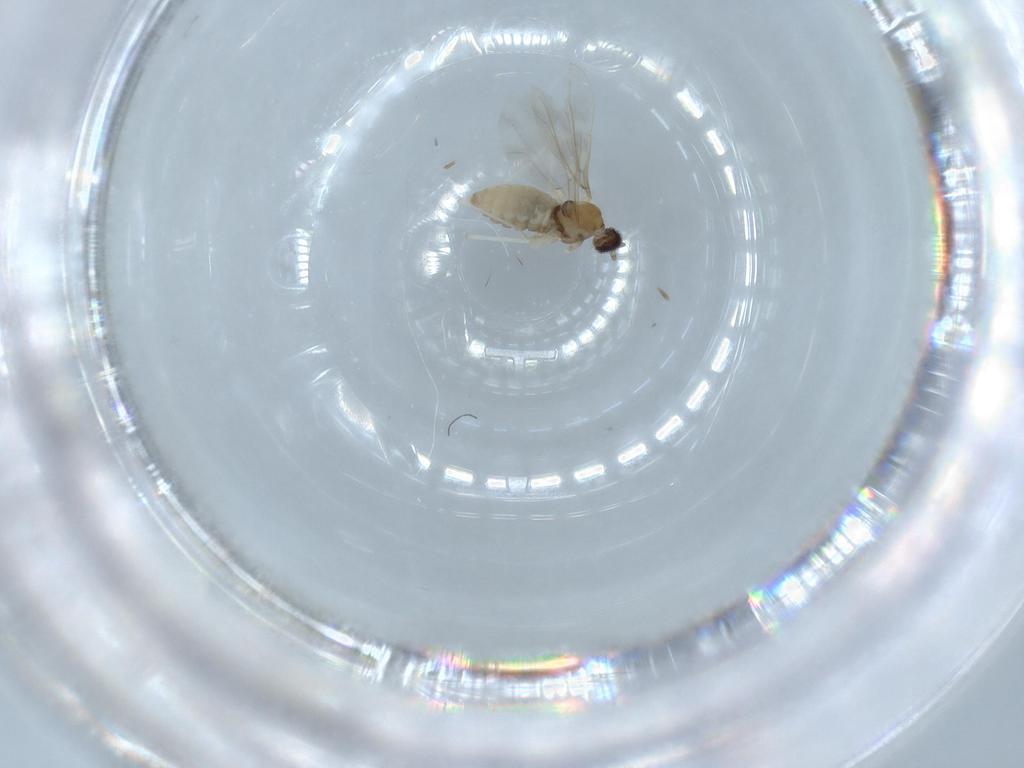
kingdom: Animalia
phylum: Arthropoda
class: Insecta
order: Diptera
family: Cecidomyiidae
